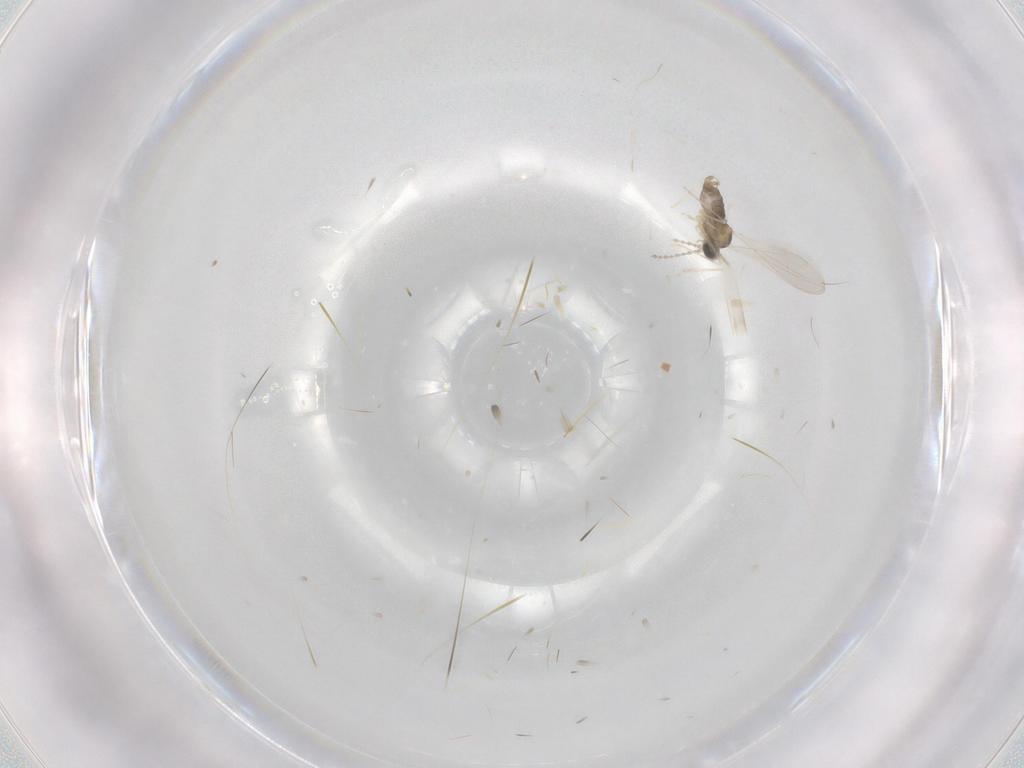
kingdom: Animalia
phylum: Arthropoda
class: Insecta
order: Diptera
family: Cecidomyiidae
